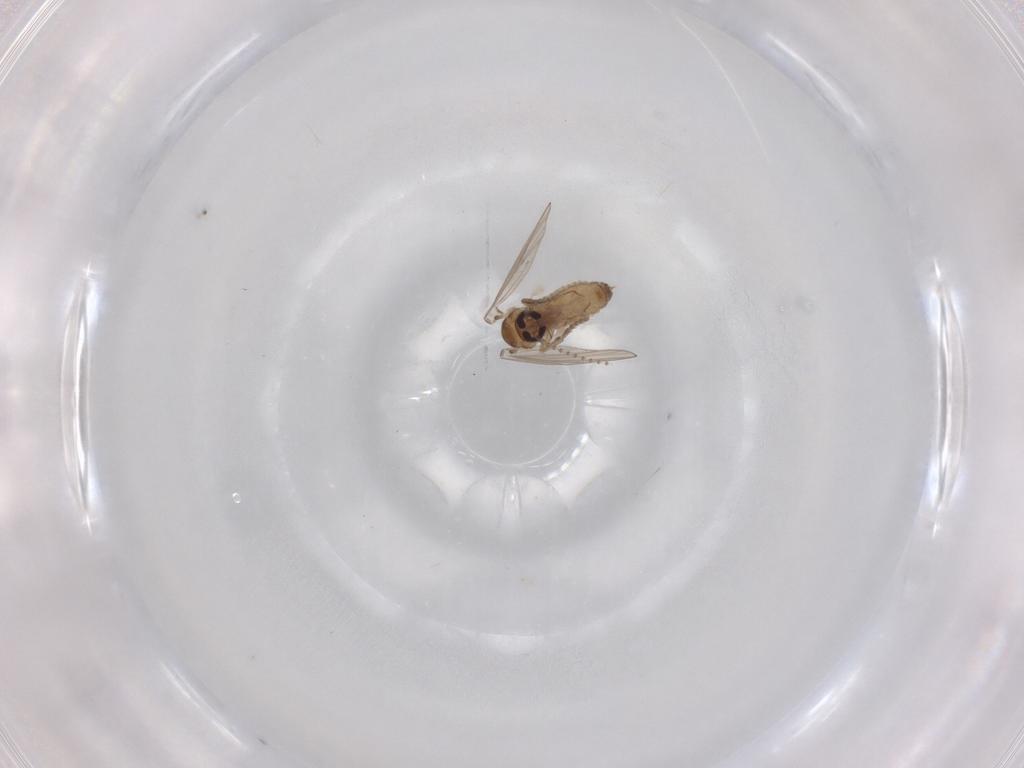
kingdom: Animalia
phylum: Arthropoda
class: Insecta
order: Diptera
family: Psychodidae
